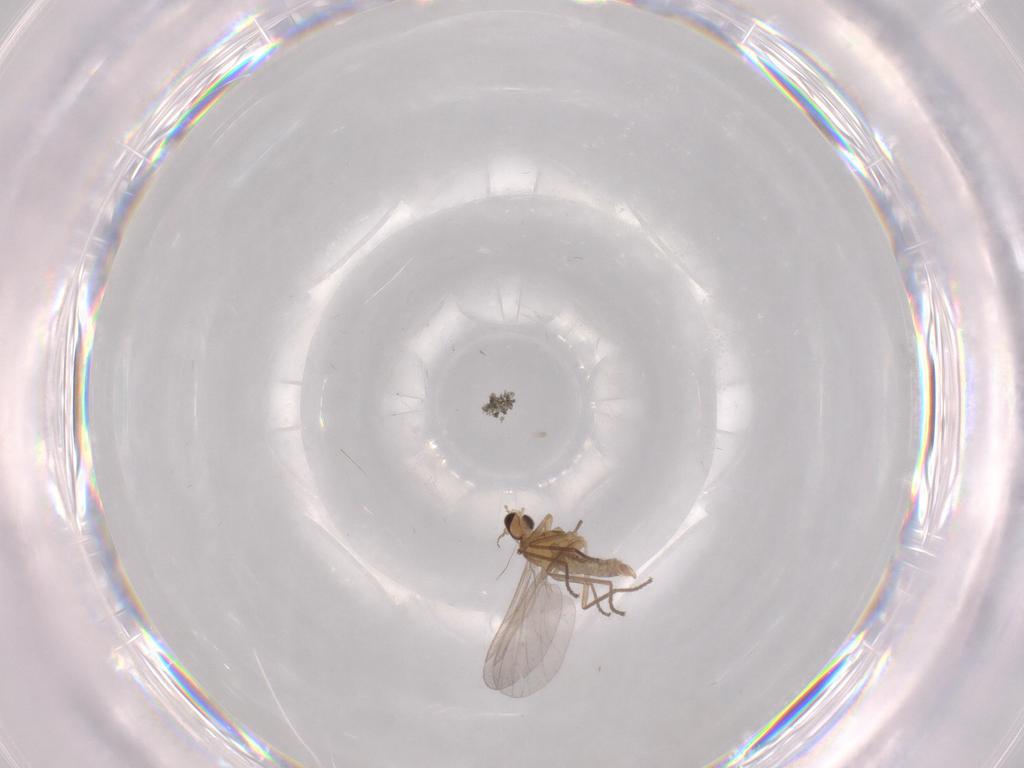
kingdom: Animalia
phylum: Arthropoda
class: Insecta
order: Diptera
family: Cecidomyiidae
